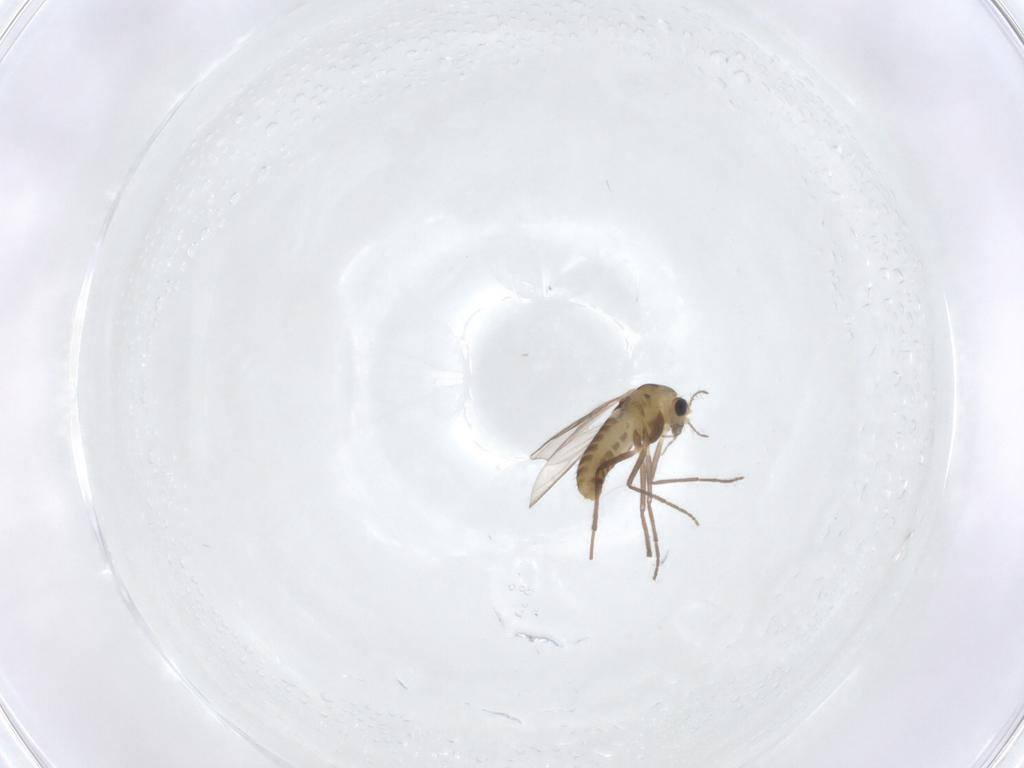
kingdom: Animalia
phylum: Arthropoda
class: Insecta
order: Diptera
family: Chironomidae
